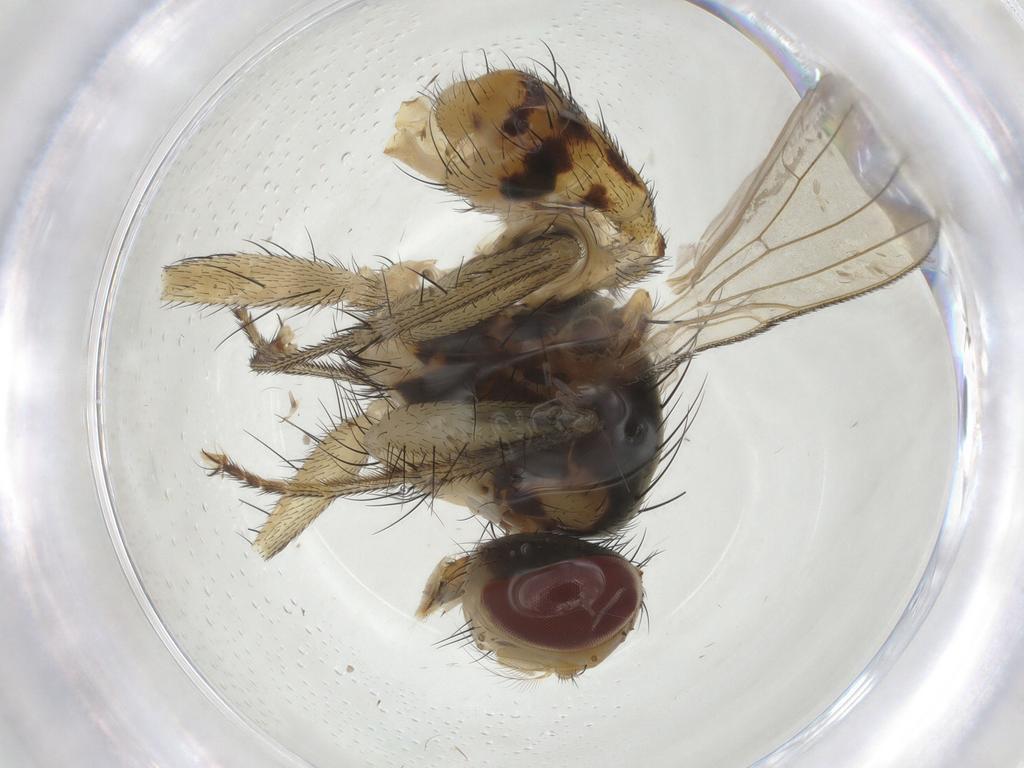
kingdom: Animalia
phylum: Arthropoda
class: Insecta
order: Diptera
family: Muscidae
